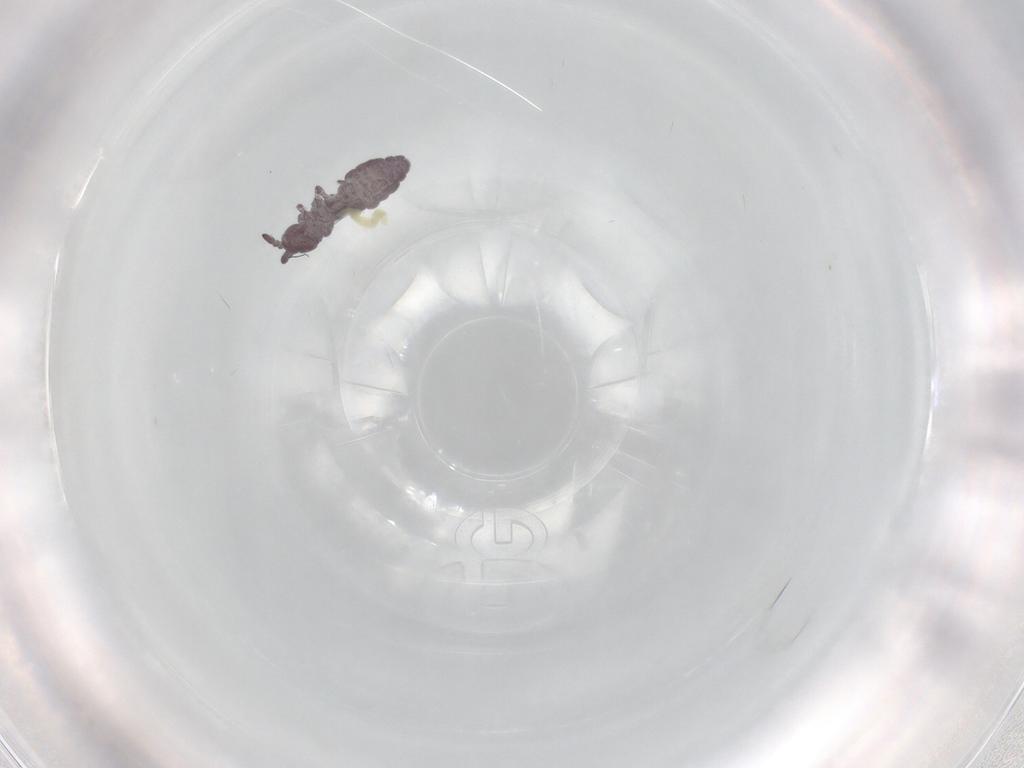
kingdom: Animalia
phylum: Arthropoda
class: Collembola
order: Poduromorpha
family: Hypogastruridae
